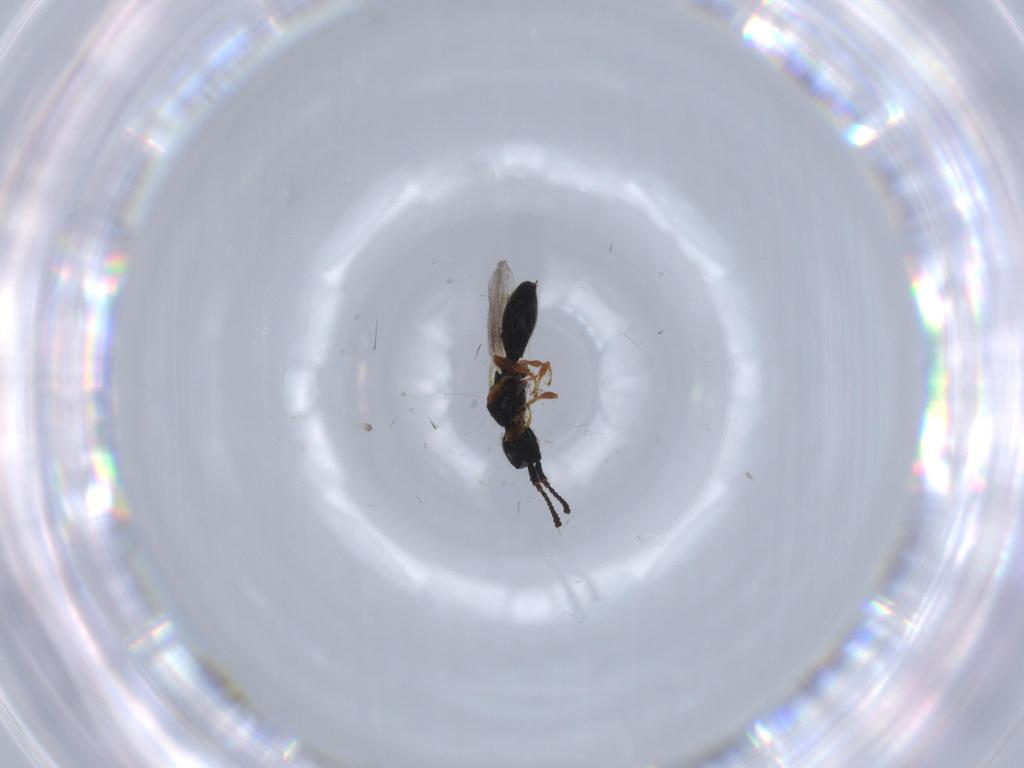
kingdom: Animalia
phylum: Arthropoda
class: Insecta
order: Hymenoptera
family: Diapriidae
